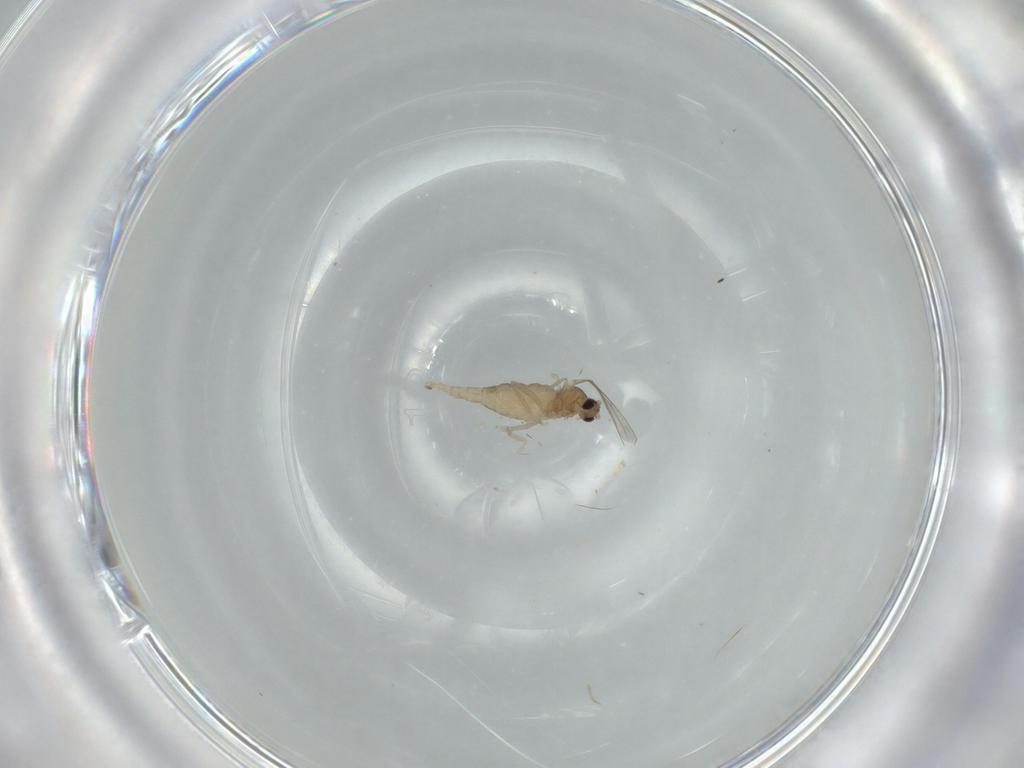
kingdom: Animalia
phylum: Arthropoda
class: Insecta
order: Diptera
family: Cecidomyiidae
